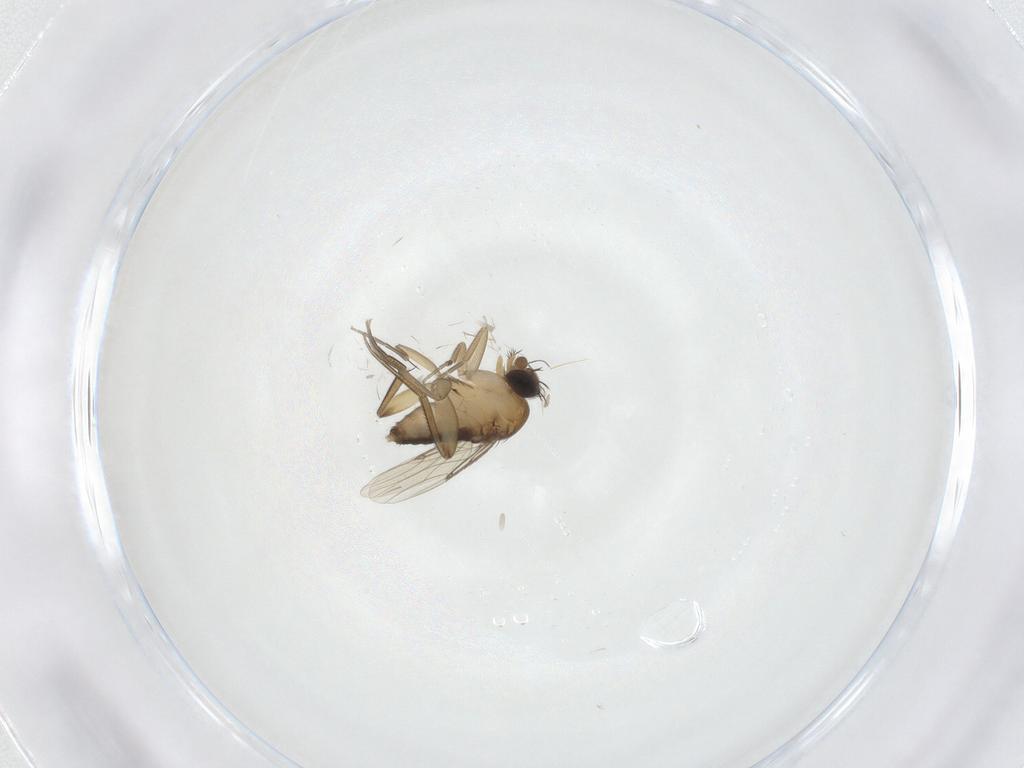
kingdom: Animalia
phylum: Arthropoda
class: Insecta
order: Diptera
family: Phoridae
